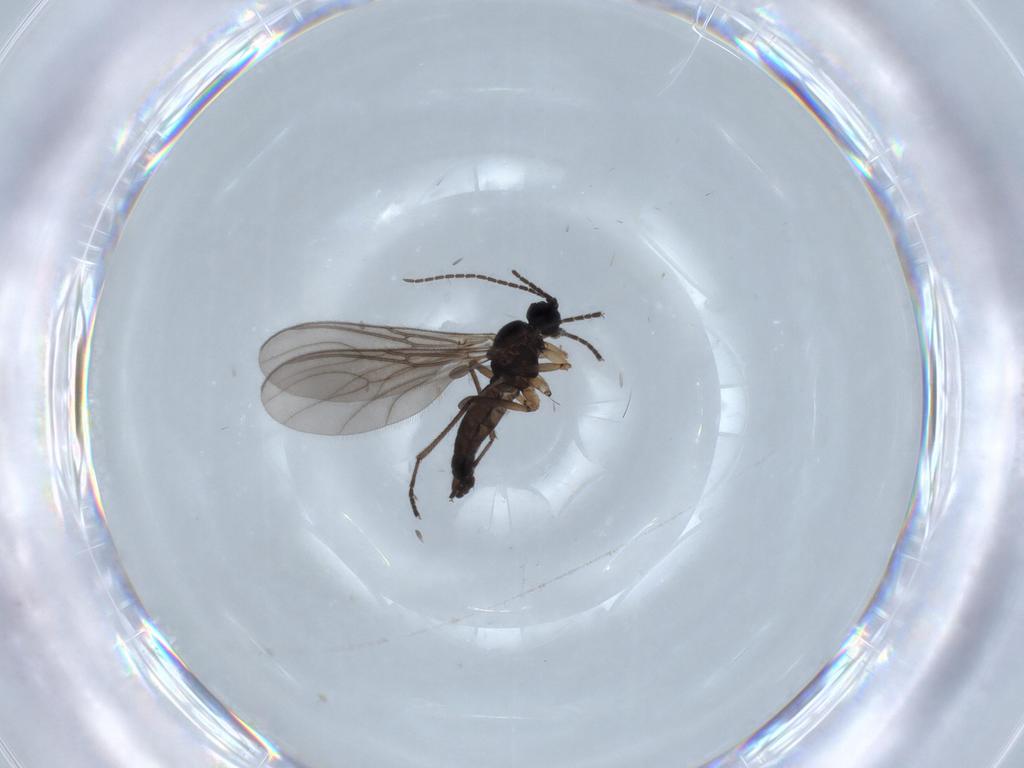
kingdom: Animalia
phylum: Arthropoda
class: Insecta
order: Diptera
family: Sciaridae
